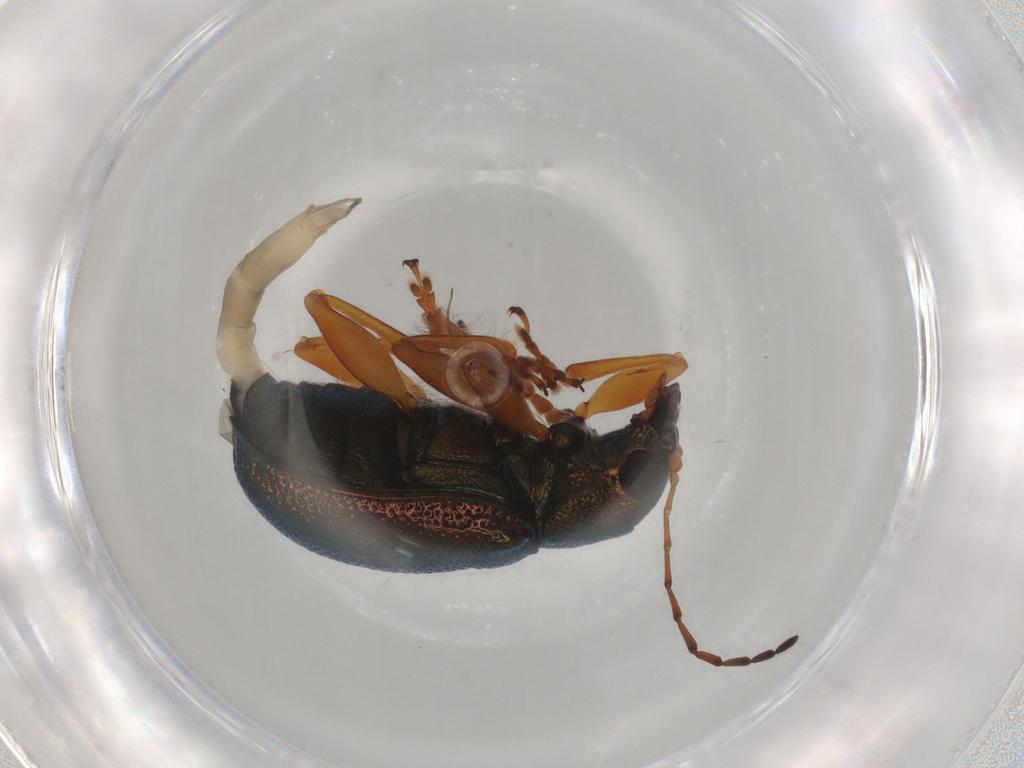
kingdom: Animalia
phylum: Arthropoda
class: Insecta
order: Coleoptera
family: Chrysomelidae
